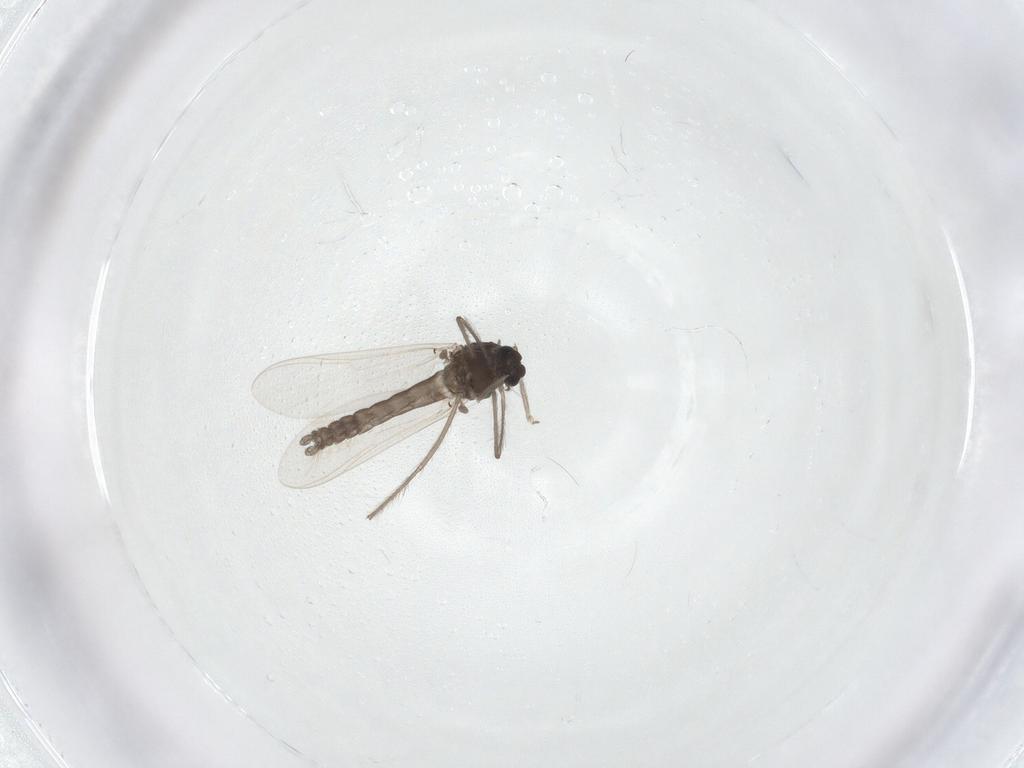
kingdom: Animalia
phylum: Arthropoda
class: Insecta
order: Diptera
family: Chironomidae
